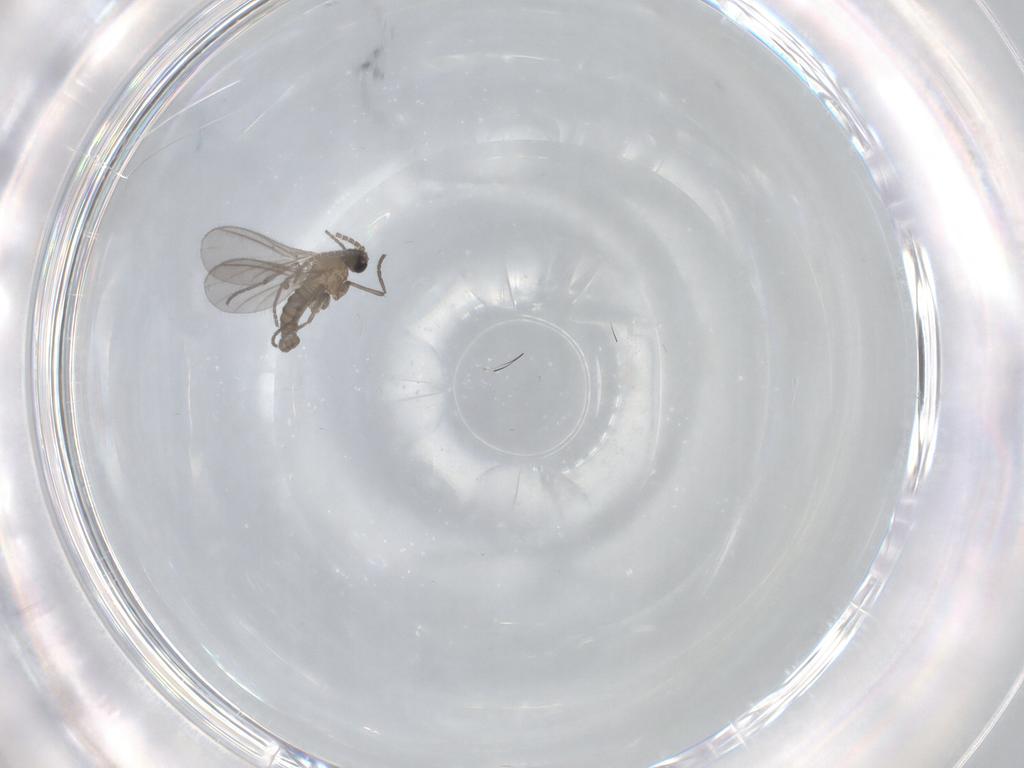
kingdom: Animalia
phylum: Arthropoda
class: Insecta
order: Diptera
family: Sciaridae
